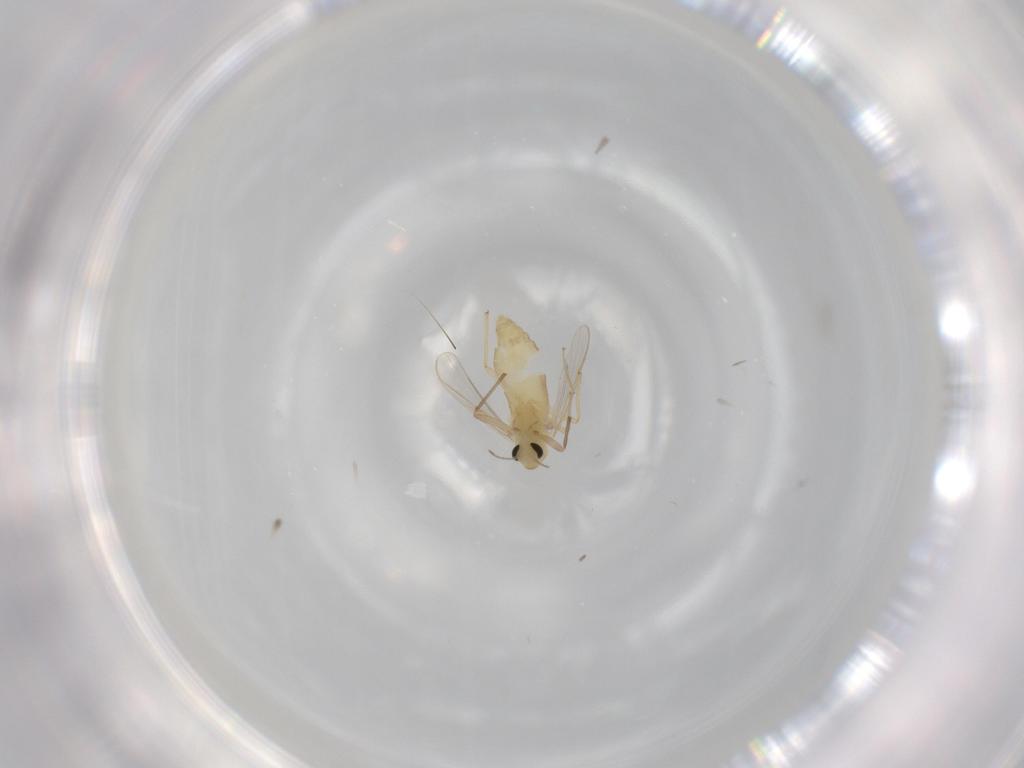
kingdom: Animalia
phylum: Arthropoda
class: Insecta
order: Diptera
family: Chironomidae
